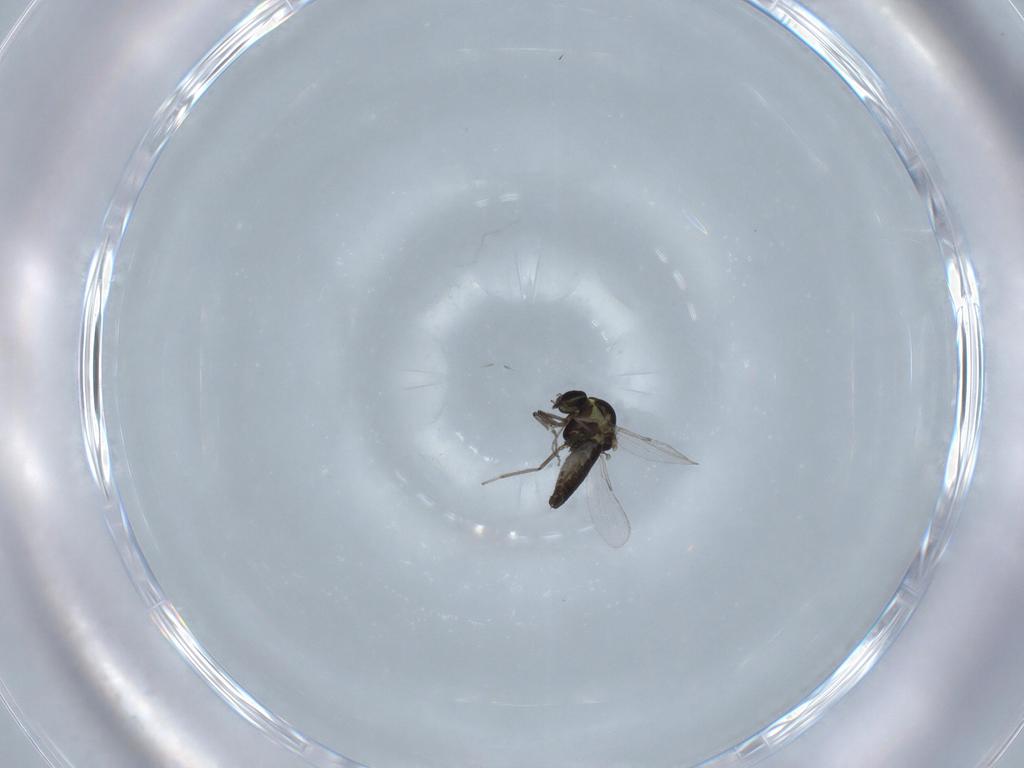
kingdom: Animalia
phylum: Arthropoda
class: Insecta
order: Diptera
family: Ceratopogonidae
